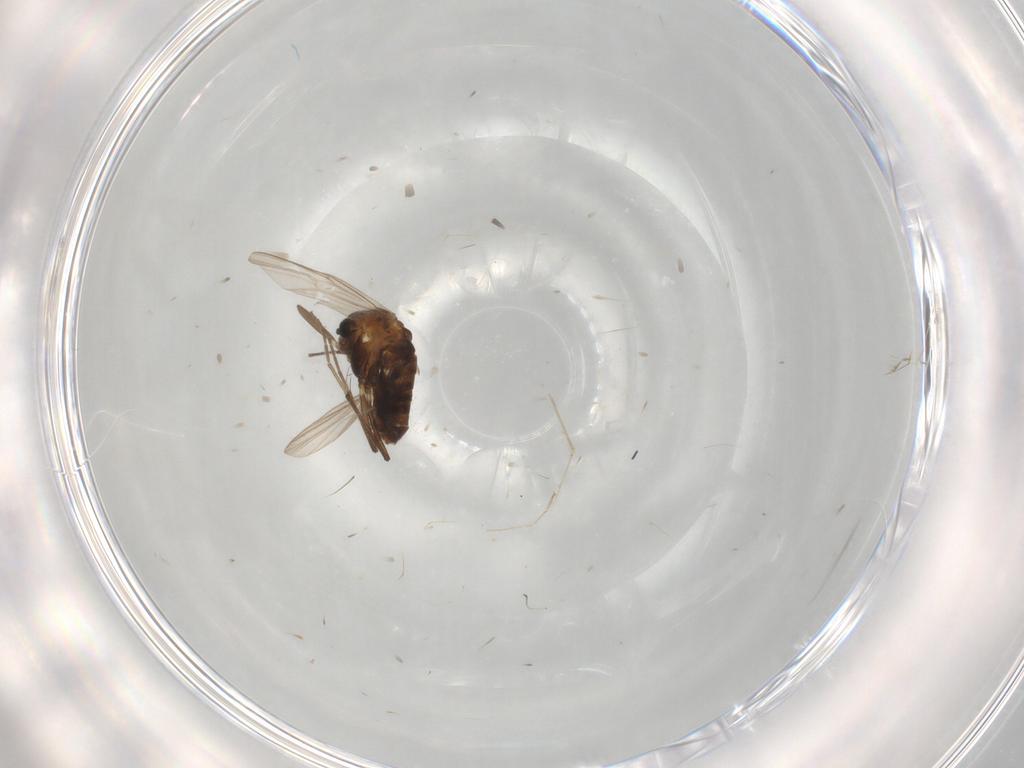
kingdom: Animalia
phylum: Arthropoda
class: Insecta
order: Diptera
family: Chironomidae
